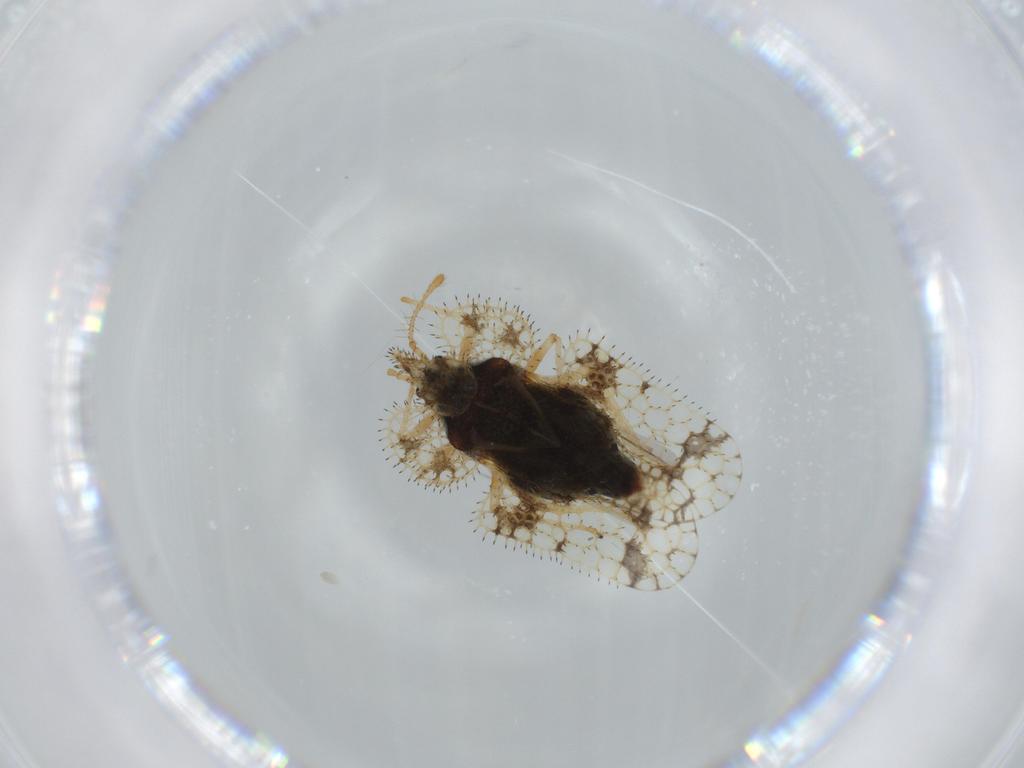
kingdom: Animalia
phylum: Arthropoda
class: Insecta
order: Hemiptera
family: Tingidae
